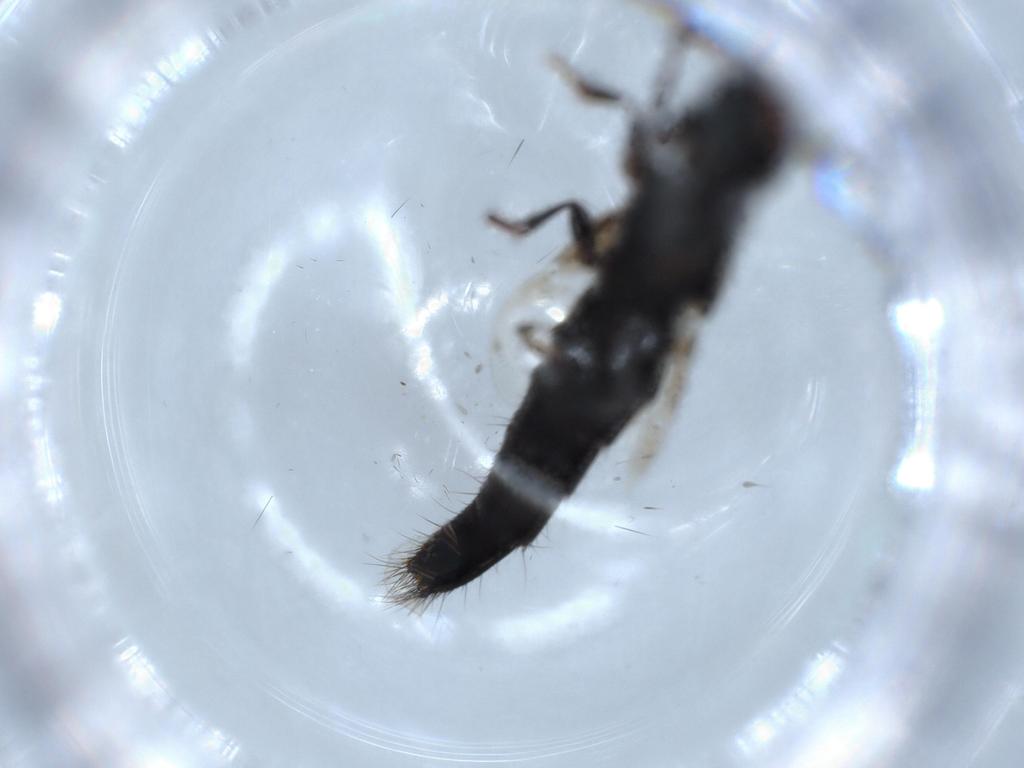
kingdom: Animalia
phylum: Arthropoda
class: Insecta
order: Coleoptera
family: Staphylinidae
